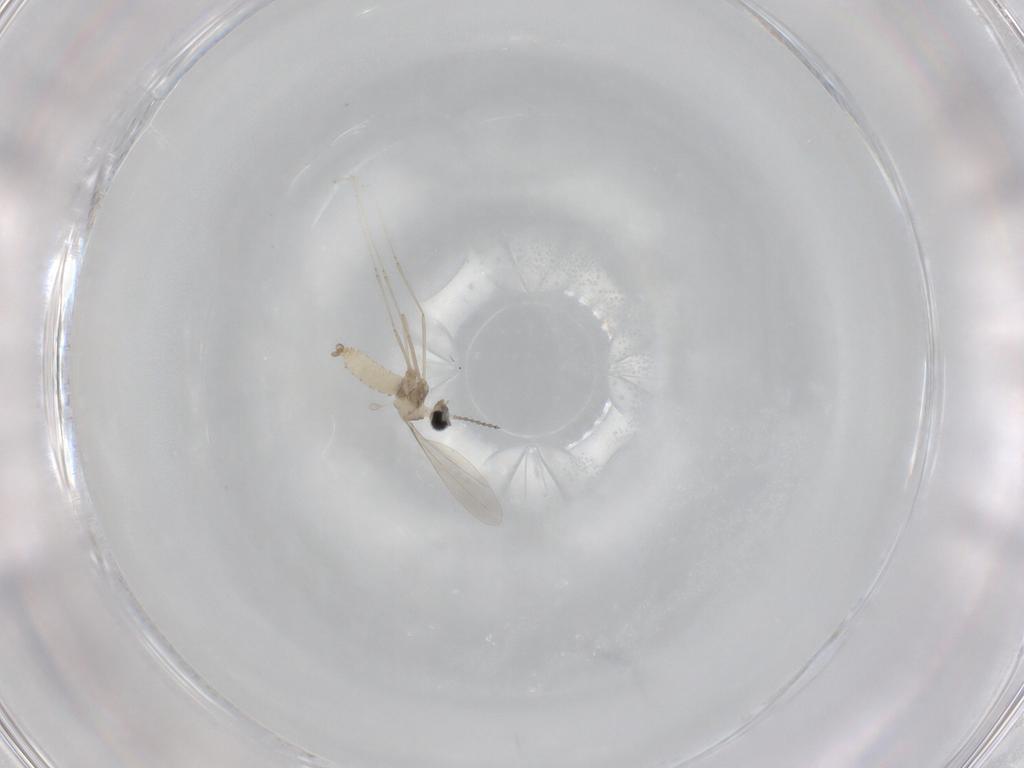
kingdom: Animalia
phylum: Arthropoda
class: Insecta
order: Diptera
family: Cecidomyiidae
